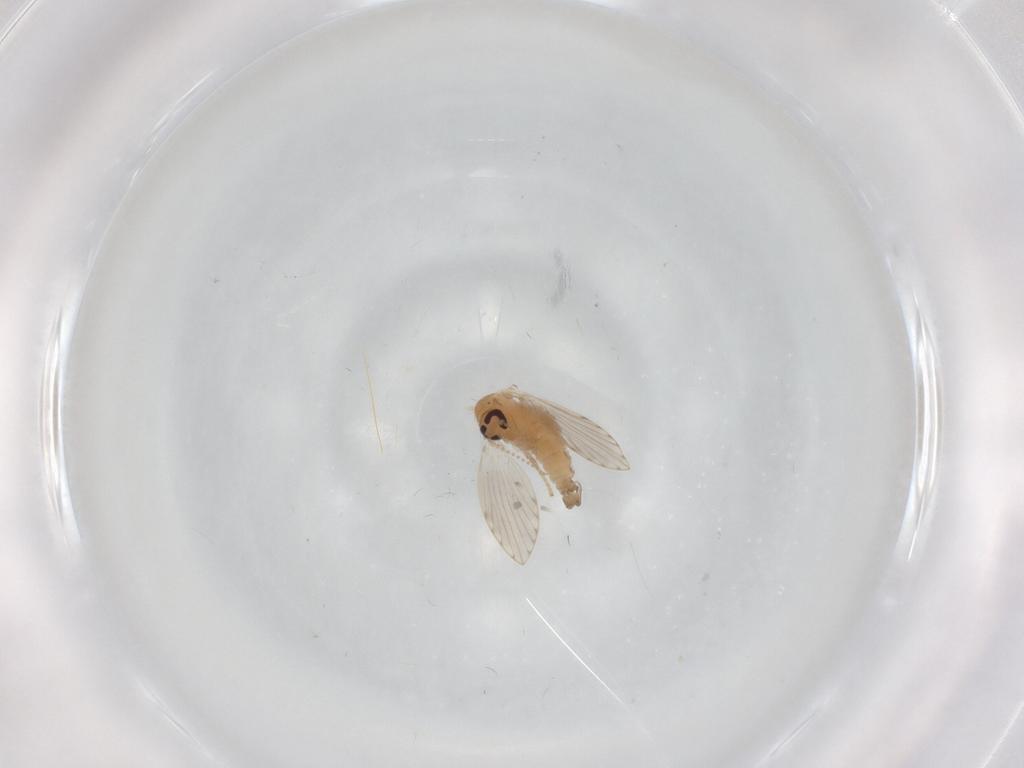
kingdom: Animalia
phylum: Arthropoda
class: Insecta
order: Diptera
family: Psychodidae
